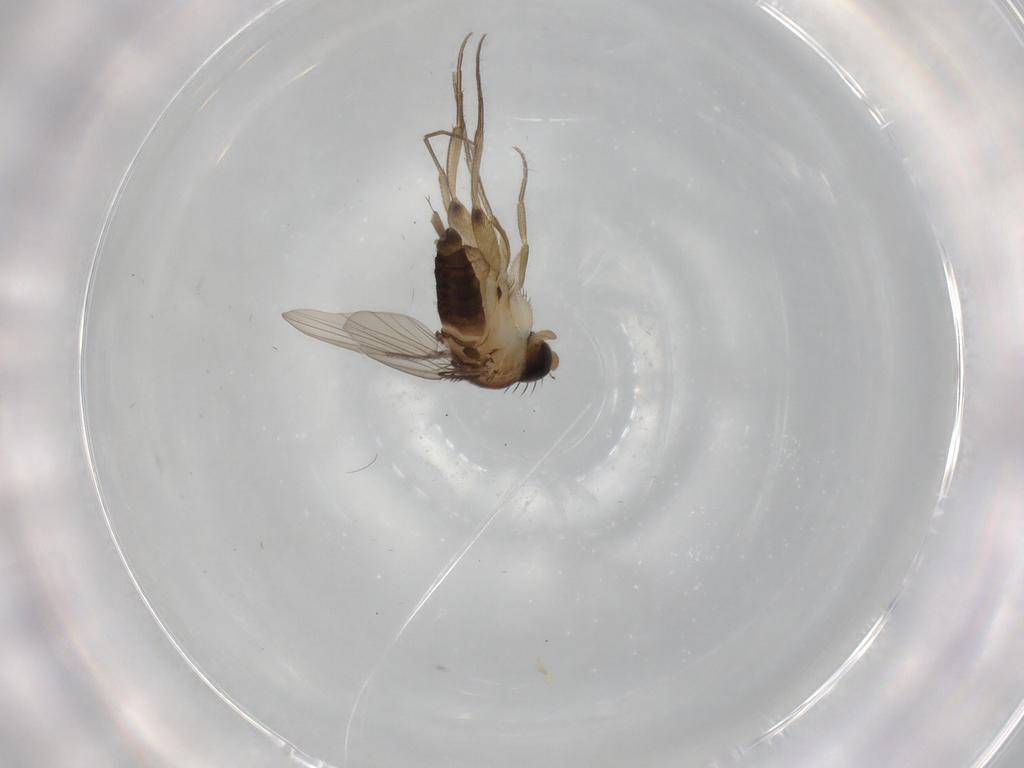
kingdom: Animalia
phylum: Arthropoda
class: Insecta
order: Diptera
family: Phoridae
